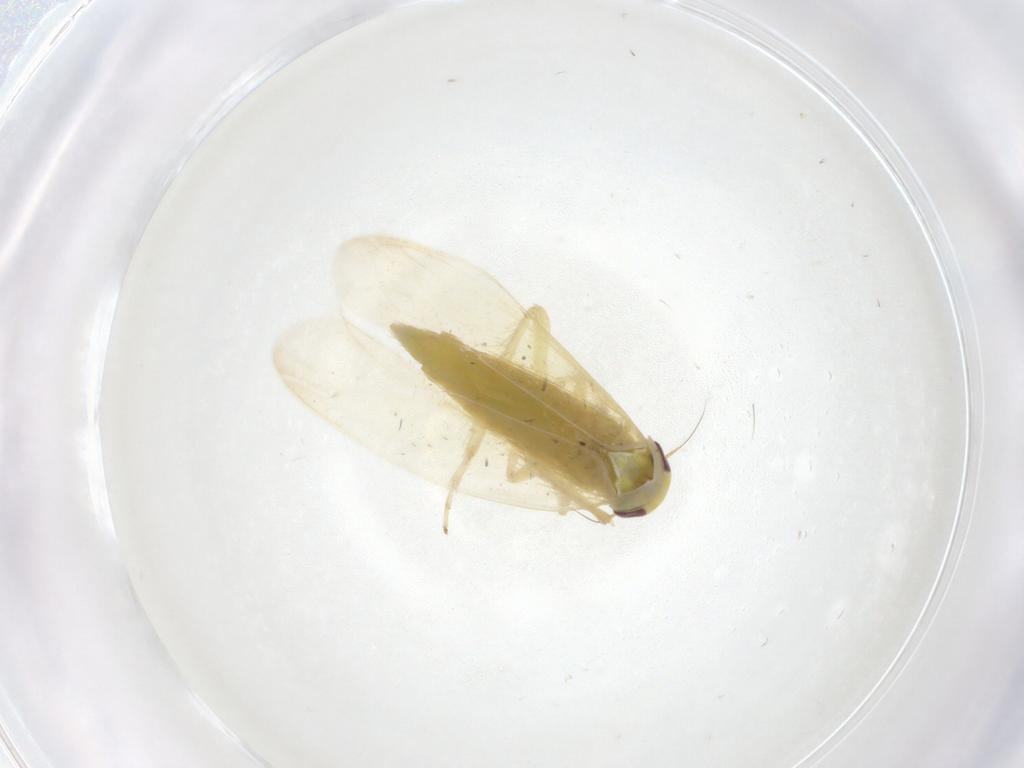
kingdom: Animalia
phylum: Arthropoda
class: Insecta
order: Hemiptera
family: Cicadellidae
